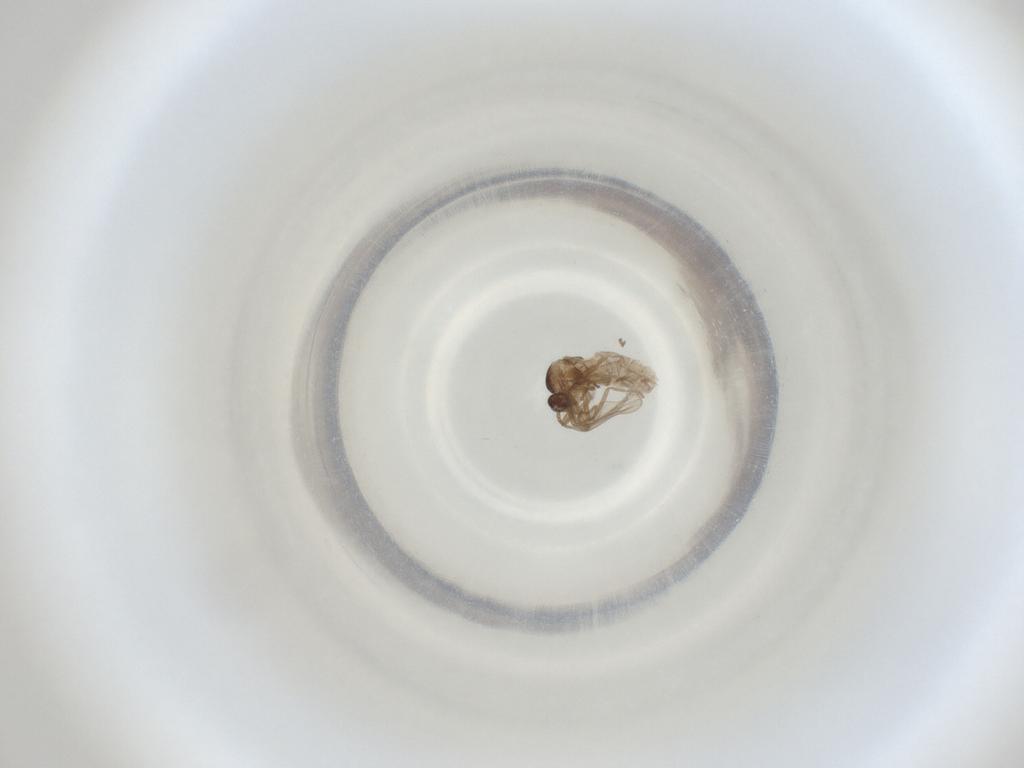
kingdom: Animalia
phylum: Arthropoda
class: Insecta
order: Diptera
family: Cecidomyiidae
